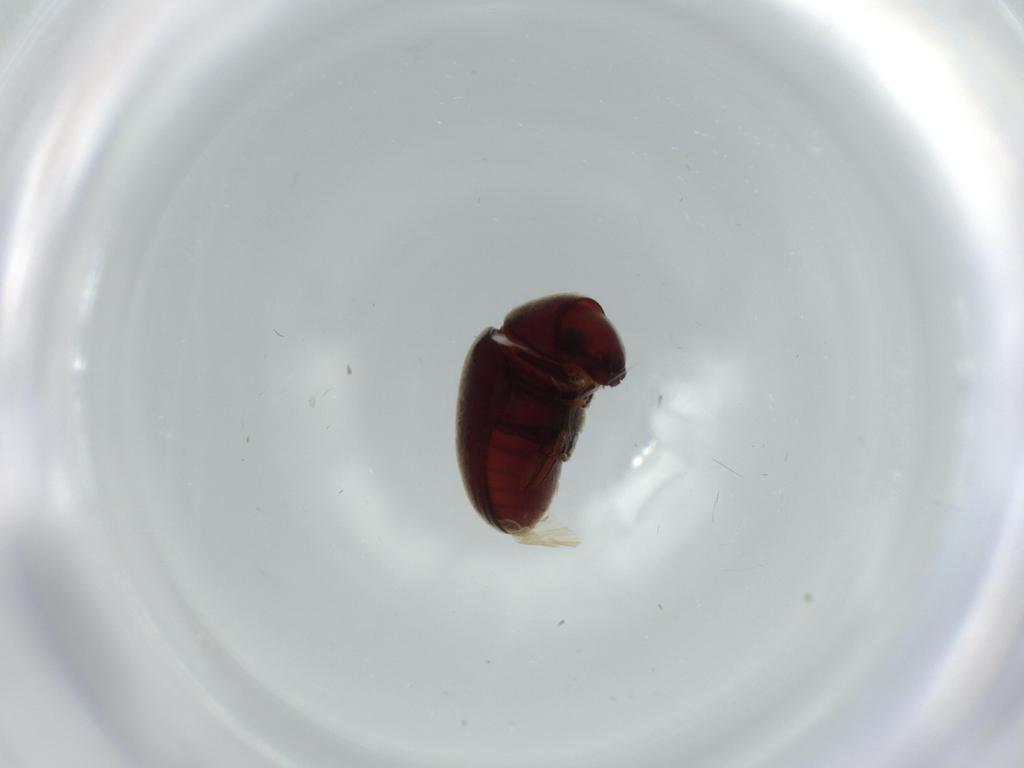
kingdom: Animalia
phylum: Arthropoda
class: Insecta
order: Coleoptera
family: Ptinidae
